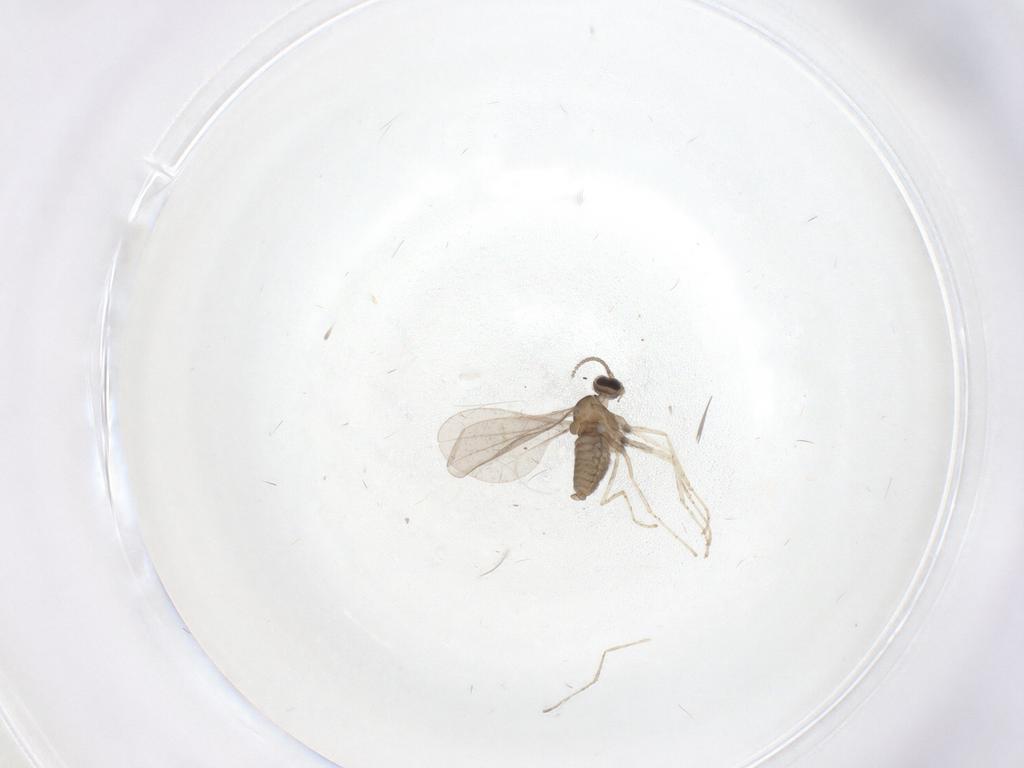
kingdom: Animalia
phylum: Arthropoda
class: Insecta
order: Diptera
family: Cecidomyiidae
